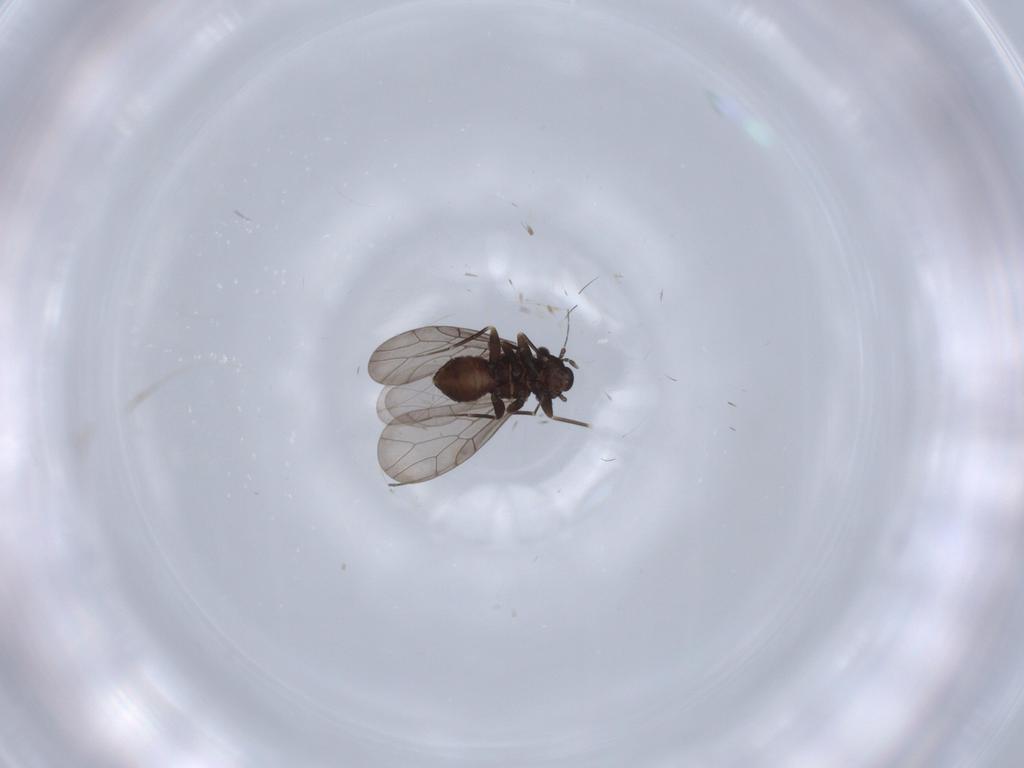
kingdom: Animalia
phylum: Arthropoda
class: Insecta
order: Psocodea
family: Lepidopsocidae
